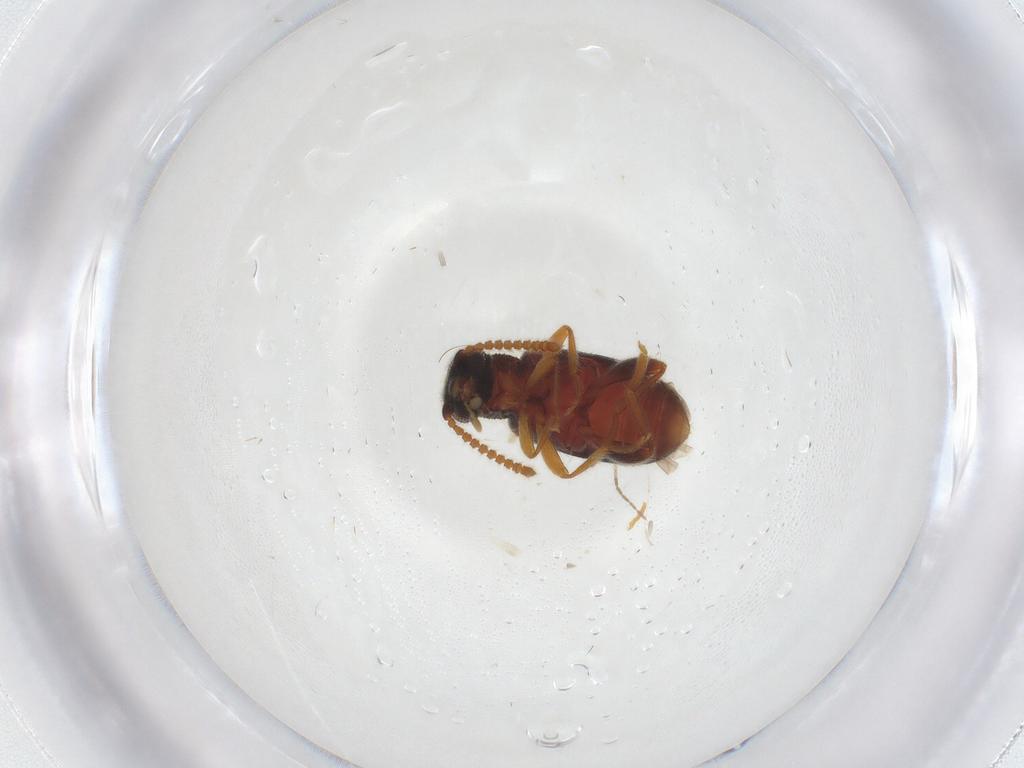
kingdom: Animalia
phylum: Arthropoda
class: Insecta
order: Coleoptera
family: Aderidae
